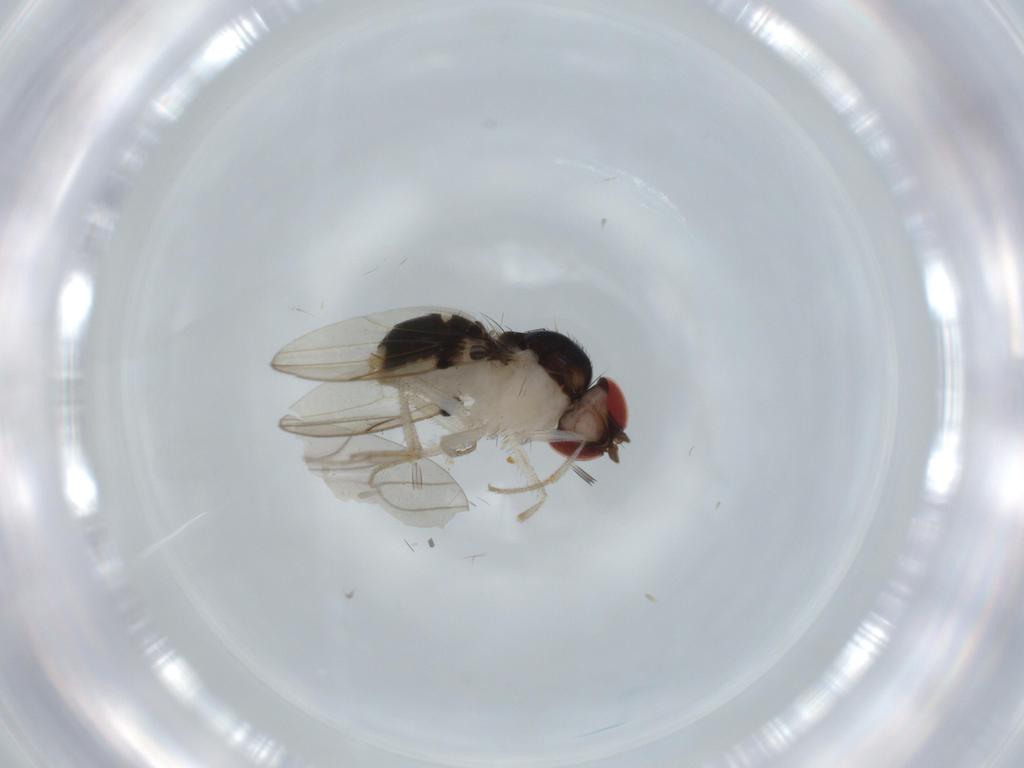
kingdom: Animalia
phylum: Arthropoda
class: Insecta
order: Diptera
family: Drosophilidae
